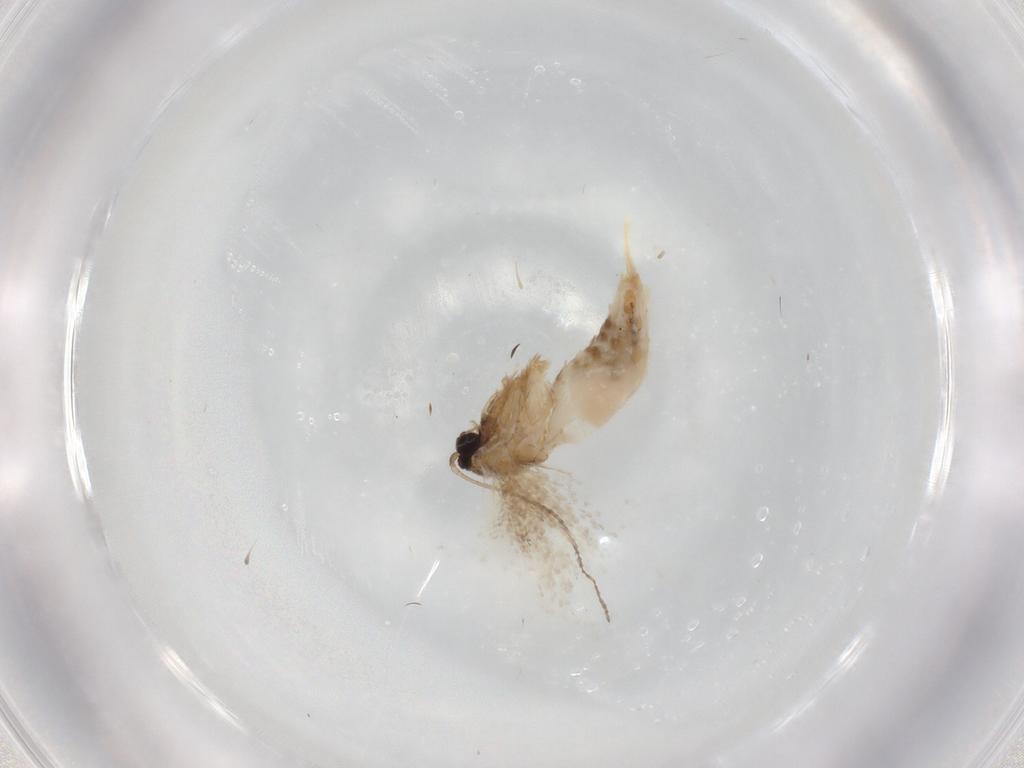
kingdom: Animalia
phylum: Arthropoda
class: Insecta
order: Lepidoptera
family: Nepticulidae
